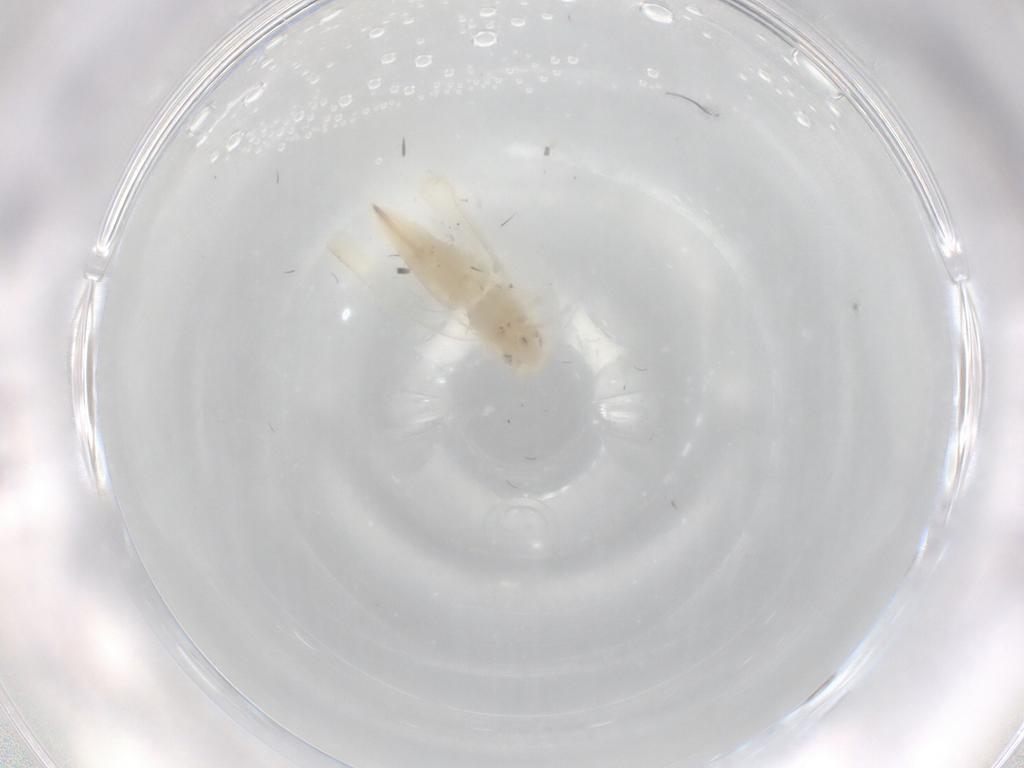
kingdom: Animalia
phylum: Arthropoda
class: Insecta
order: Hemiptera
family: Cicadellidae
